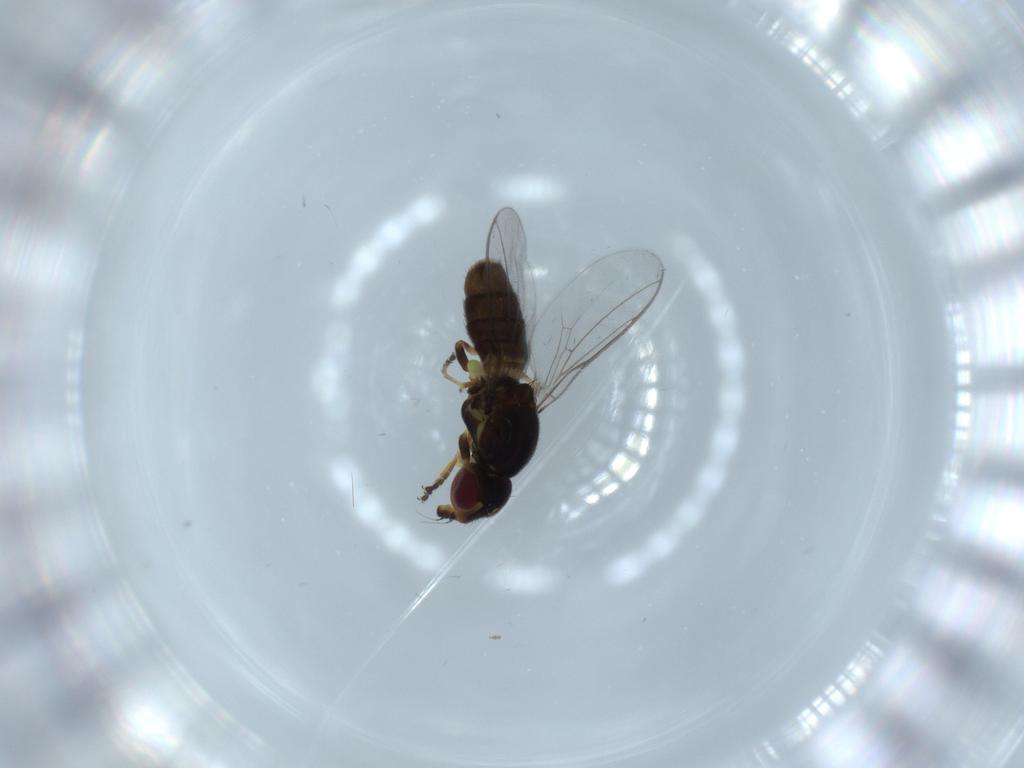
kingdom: Animalia
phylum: Arthropoda
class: Insecta
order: Diptera
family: Chloropidae
